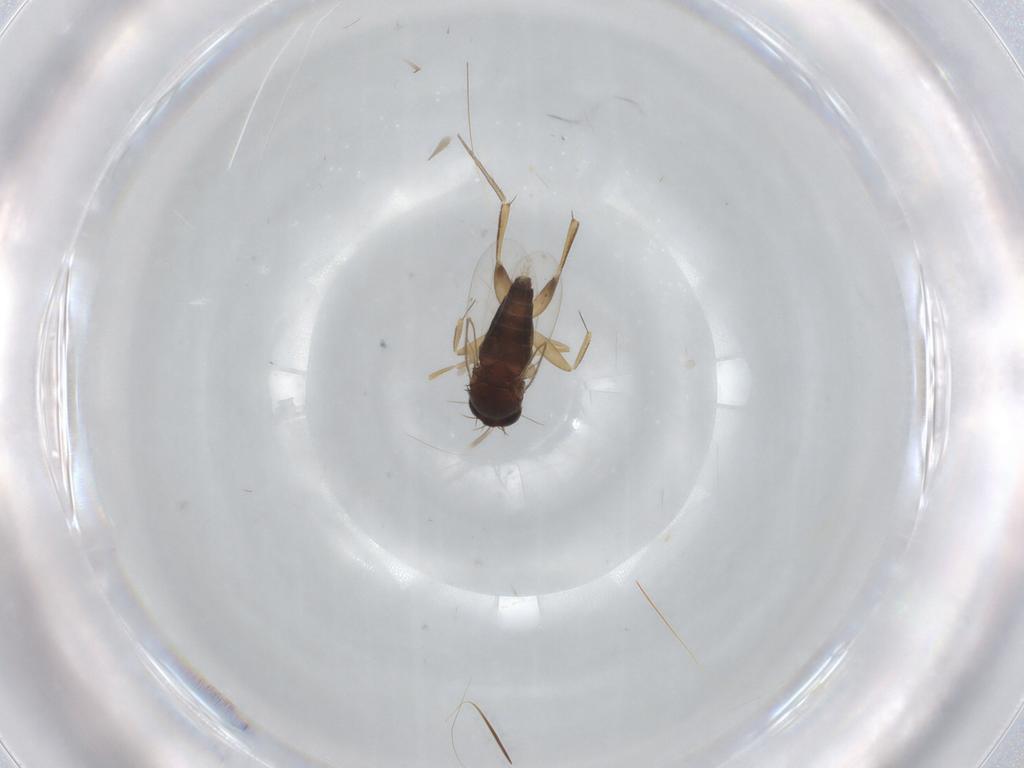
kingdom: Animalia
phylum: Arthropoda
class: Insecta
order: Diptera
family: Phoridae
